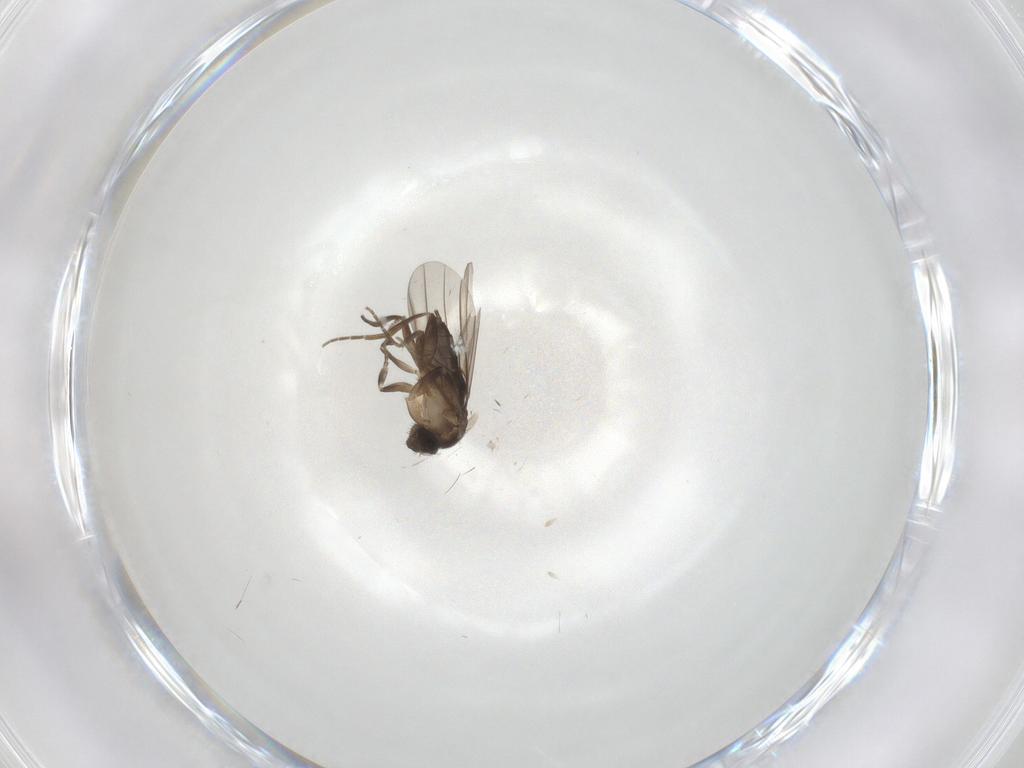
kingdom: Animalia
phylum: Arthropoda
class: Insecta
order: Diptera
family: Chironomidae
